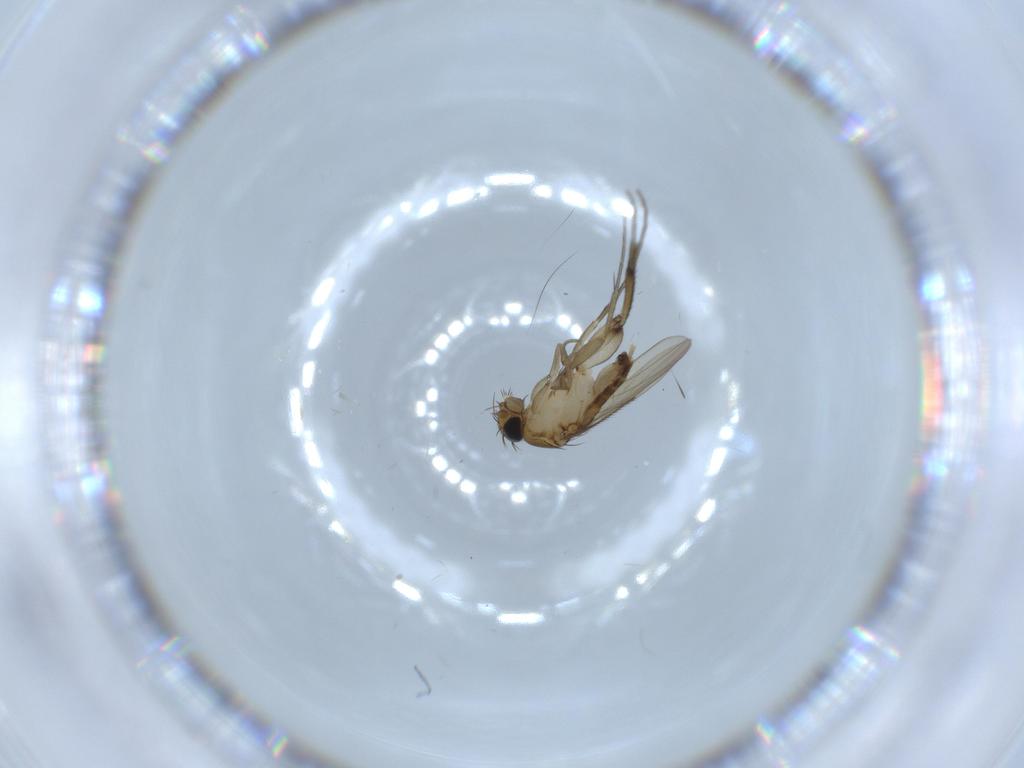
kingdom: Animalia
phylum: Arthropoda
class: Insecta
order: Diptera
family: Phoridae
